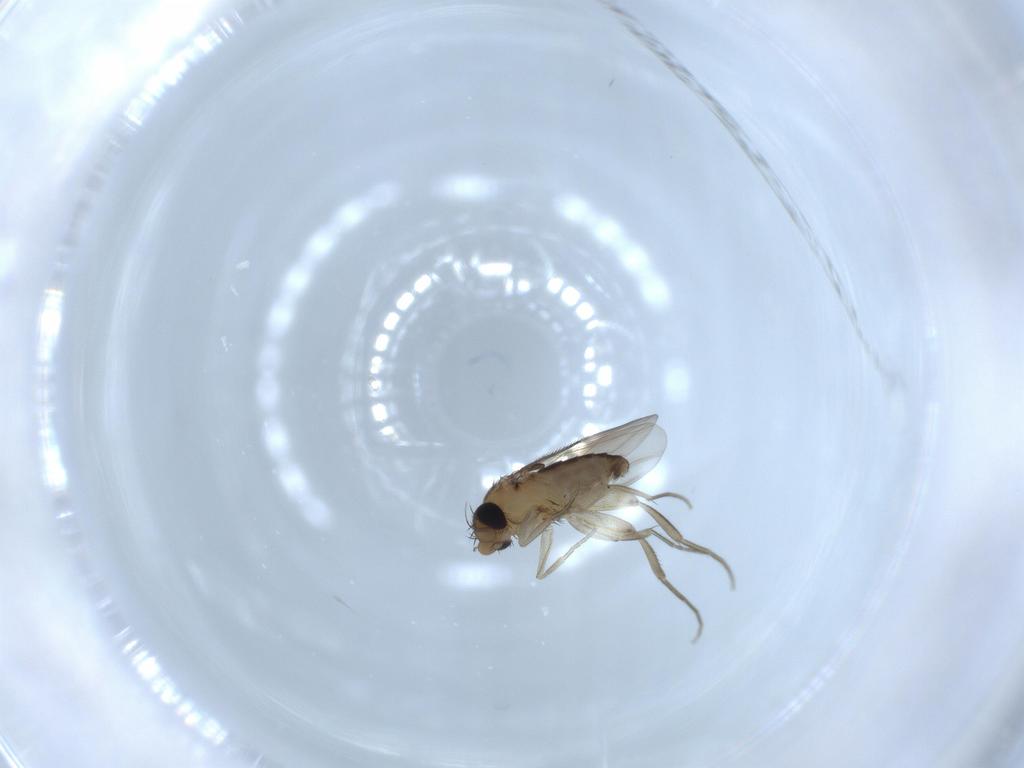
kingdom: Animalia
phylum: Arthropoda
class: Insecta
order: Diptera
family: Phoridae
